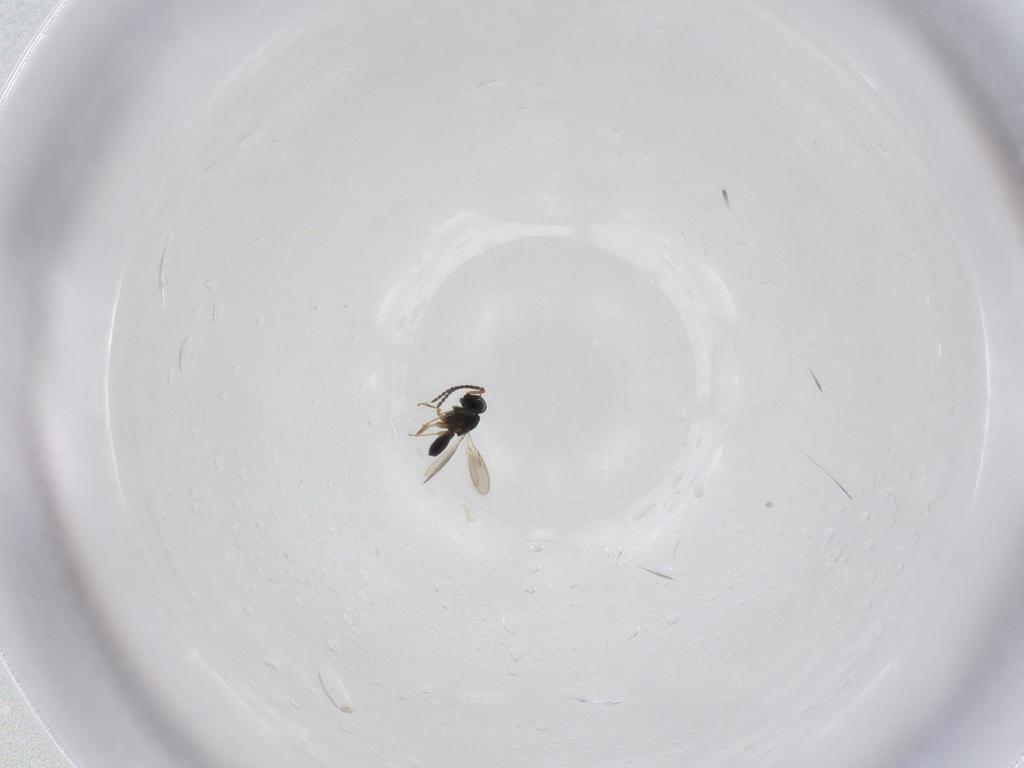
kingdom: Animalia
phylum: Arthropoda
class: Insecta
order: Hymenoptera
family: Scelionidae
